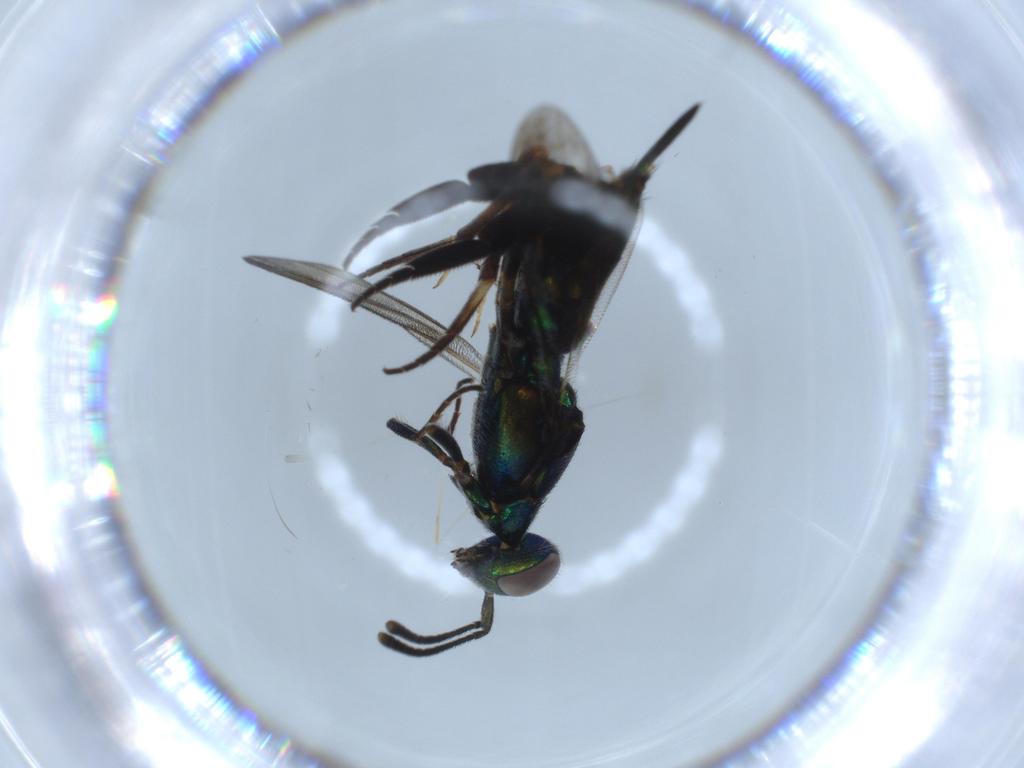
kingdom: Animalia
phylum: Arthropoda
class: Insecta
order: Hymenoptera
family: Eupelmidae
